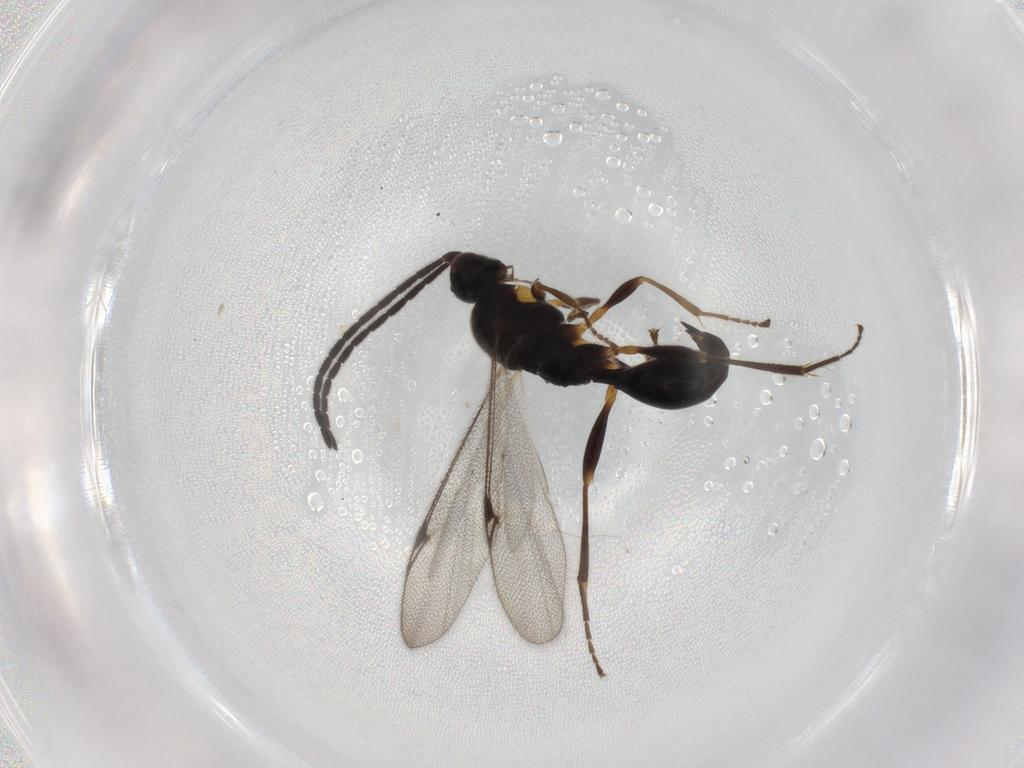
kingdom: Animalia
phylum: Arthropoda
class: Insecta
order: Hymenoptera
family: Proctotrupidae
